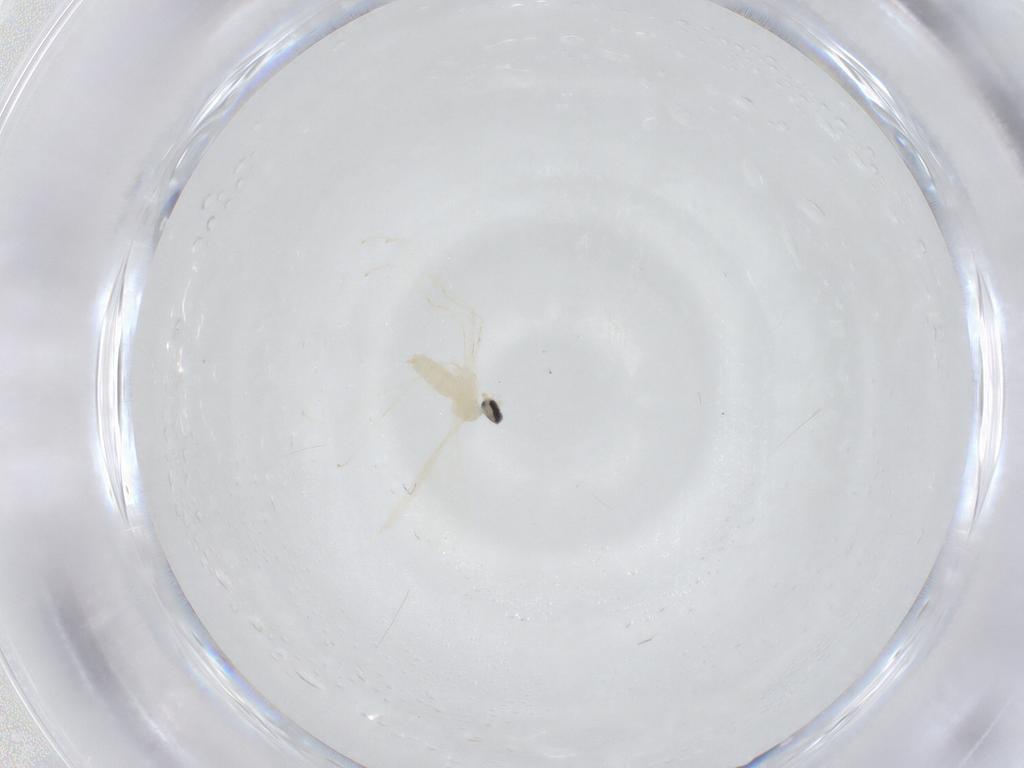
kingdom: Animalia
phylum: Arthropoda
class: Insecta
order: Diptera
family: Cecidomyiidae
